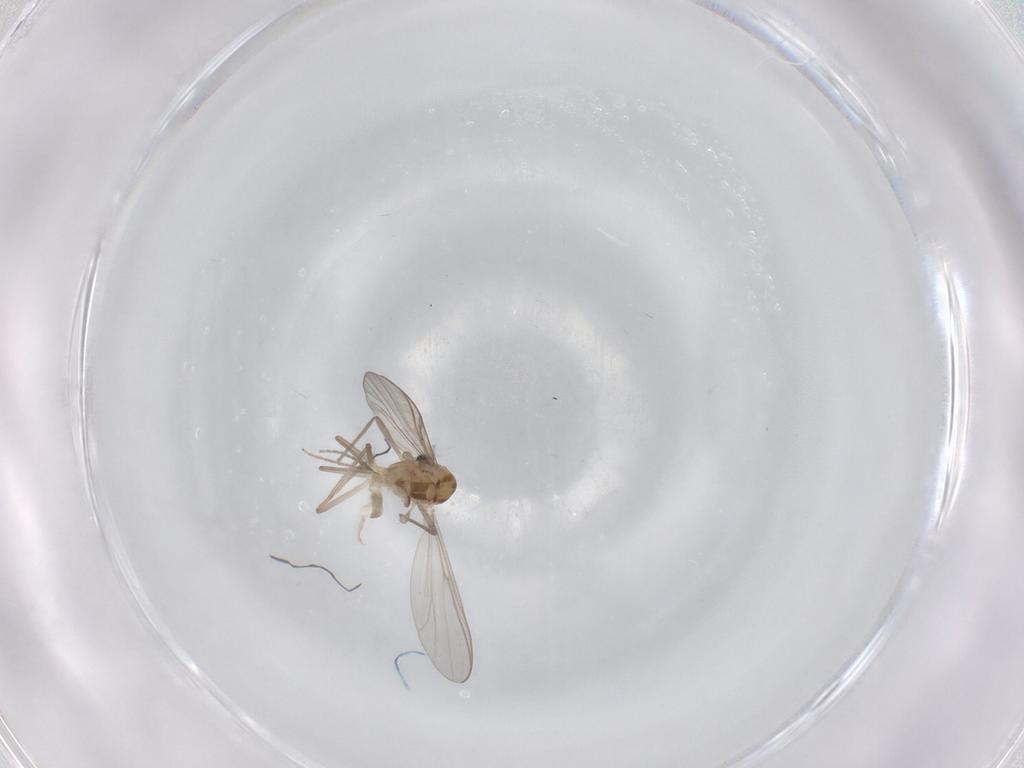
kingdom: Animalia
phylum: Arthropoda
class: Insecta
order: Diptera
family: Chironomidae
